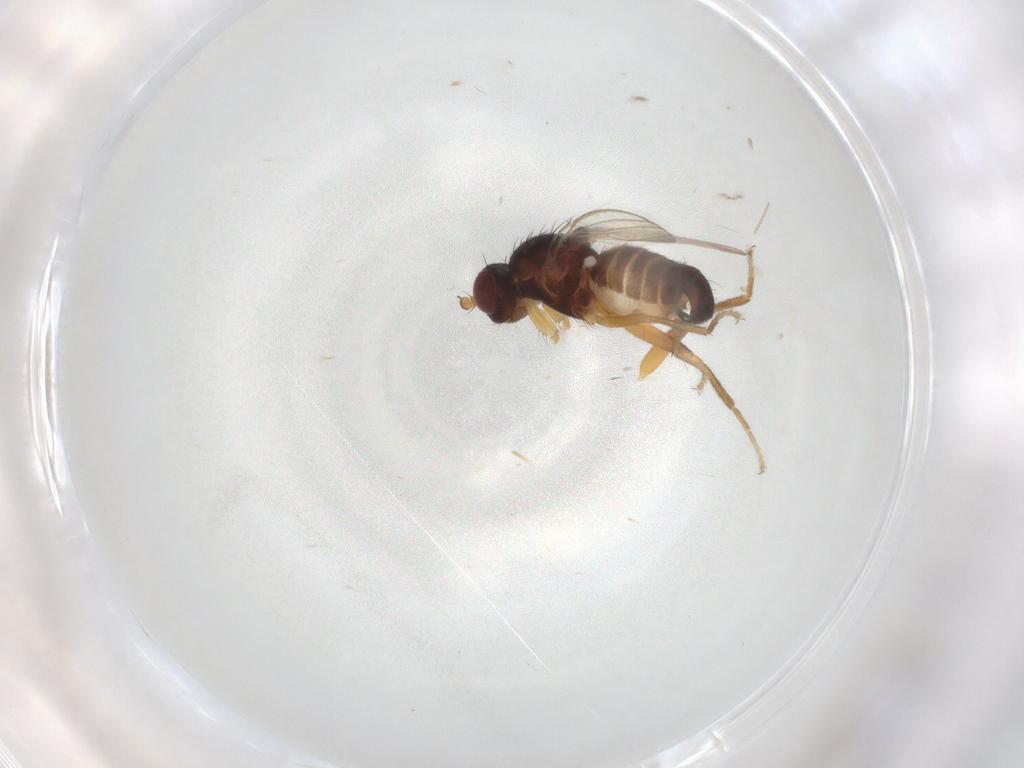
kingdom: Animalia
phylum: Arthropoda
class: Insecta
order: Diptera
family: Cypselosomatidae
